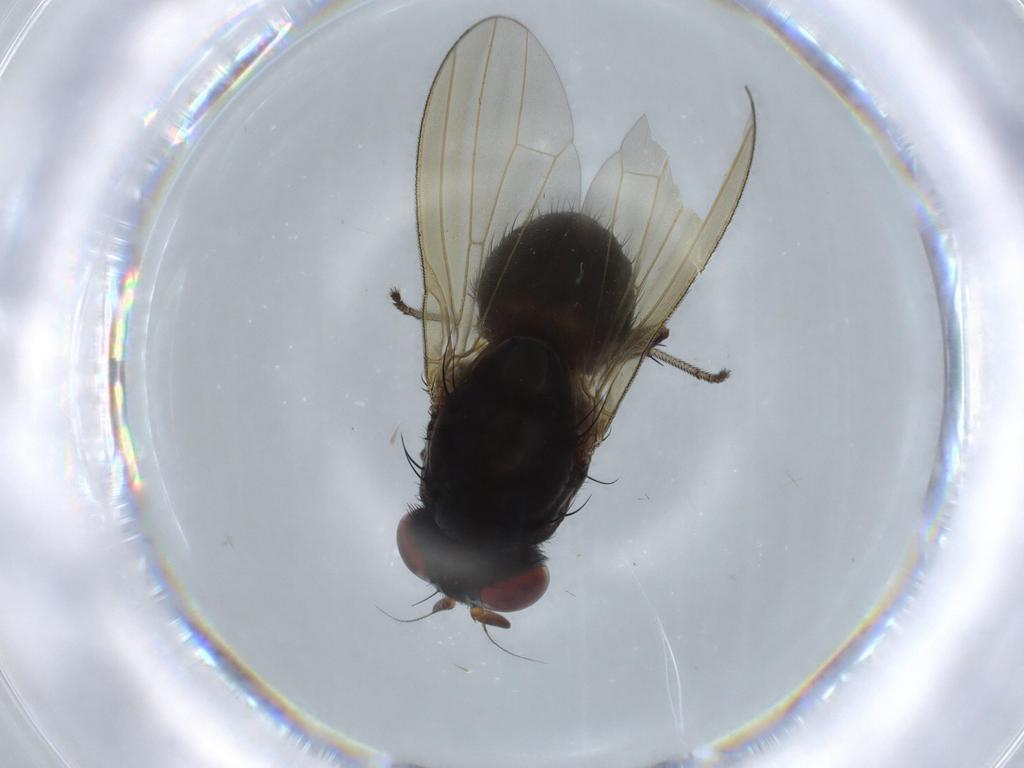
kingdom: Animalia
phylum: Arthropoda
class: Insecta
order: Diptera
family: Lauxaniidae
